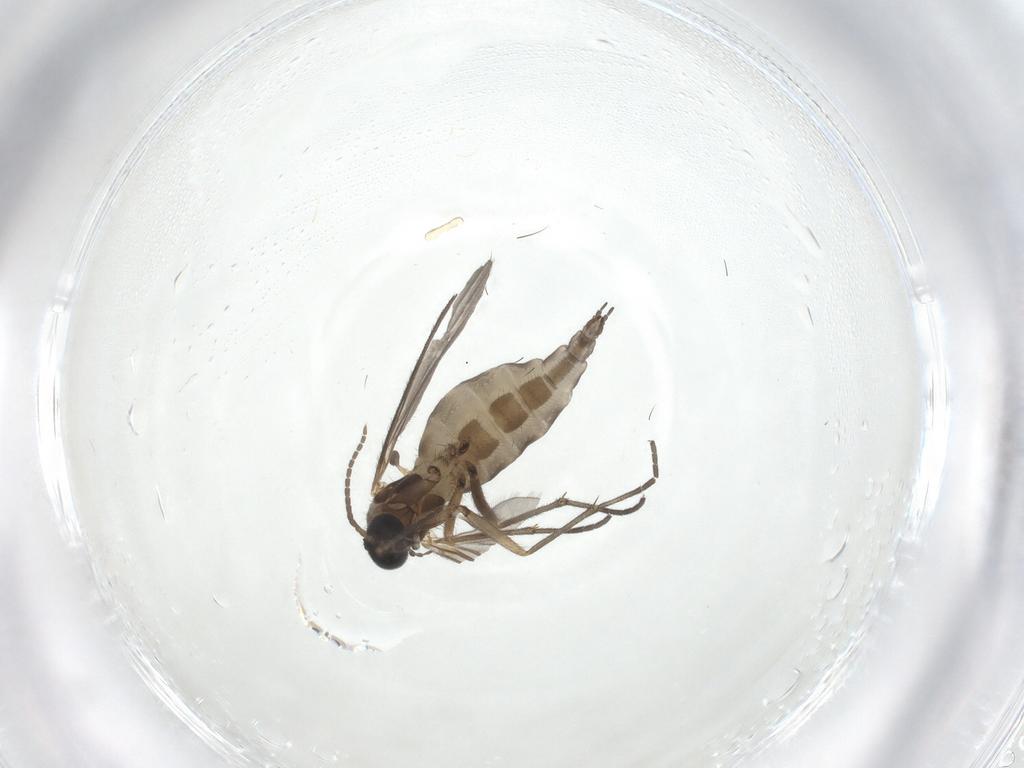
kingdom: Animalia
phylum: Arthropoda
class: Insecta
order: Diptera
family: Sciaridae
